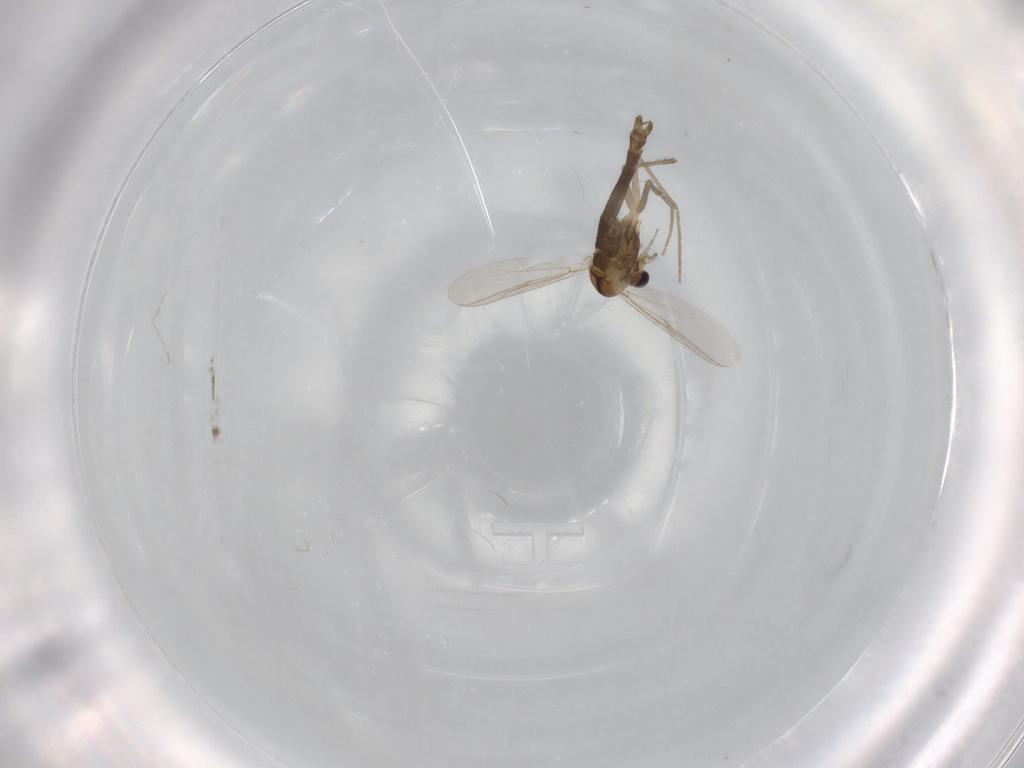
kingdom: Animalia
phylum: Arthropoda
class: Insecta
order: Diptera
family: Chironomidae
